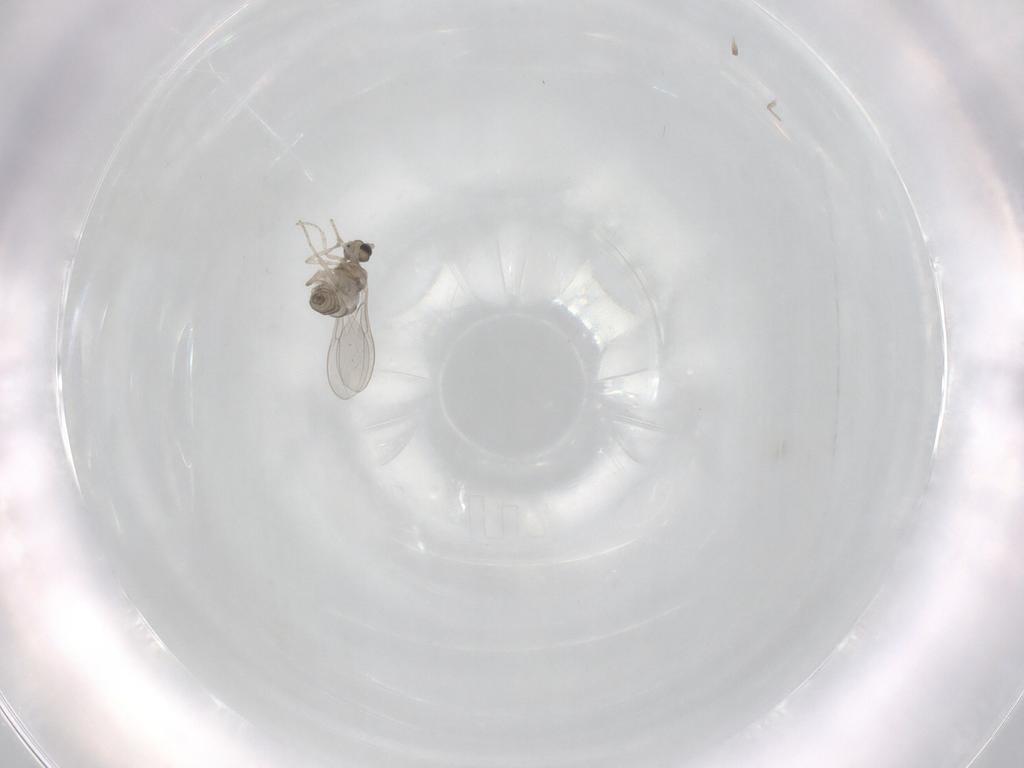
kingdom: Animalia
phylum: Arthropoda
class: Insecta
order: Diptera
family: Cecidomyiidae
